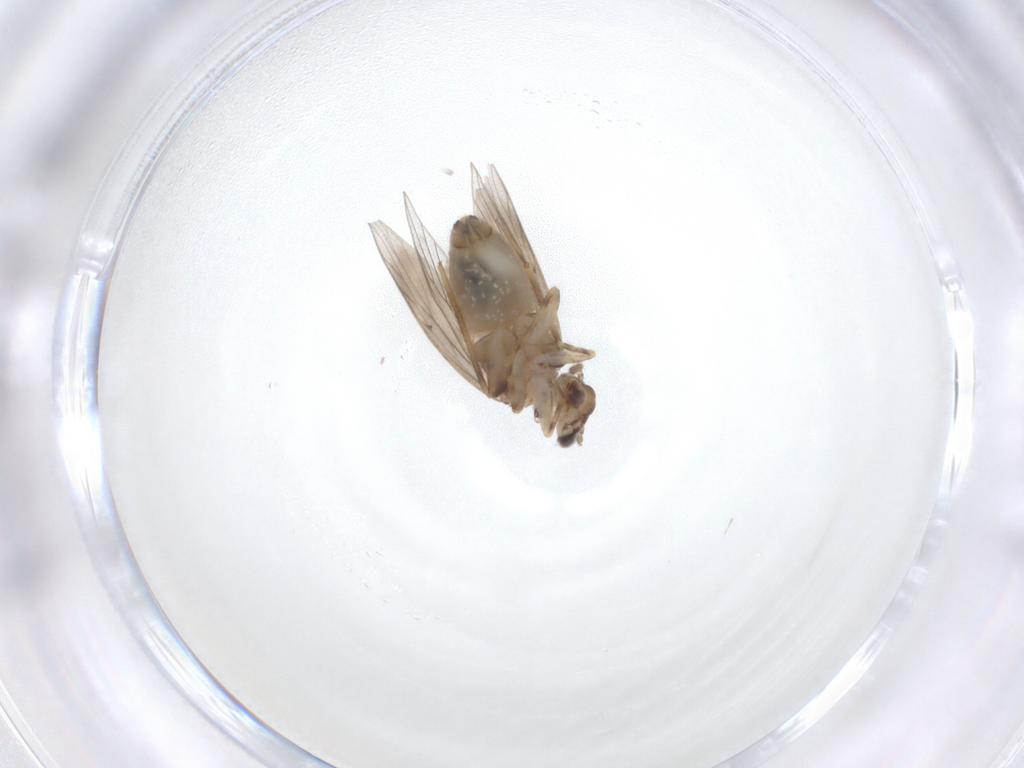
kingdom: Animalia
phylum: Arthropoda
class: Insecta
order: Psocodea
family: Lepidopsocidae
